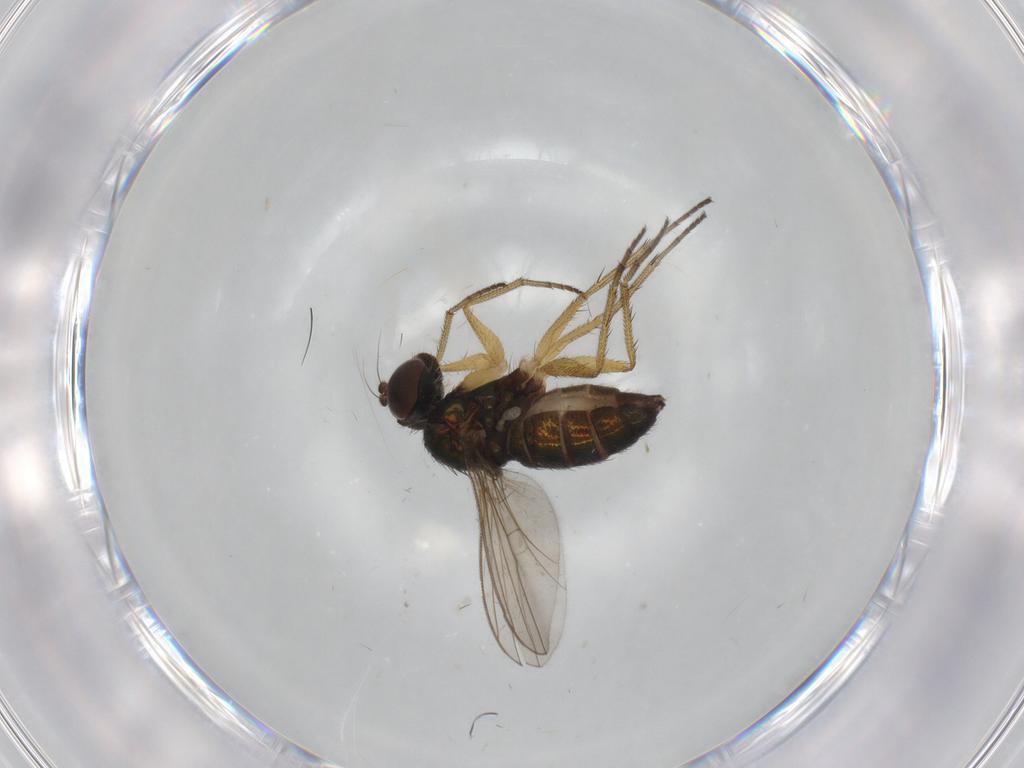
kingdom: Animalia
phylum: Arthropoda
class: Insecta
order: Diptera
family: Dolichopodidae
